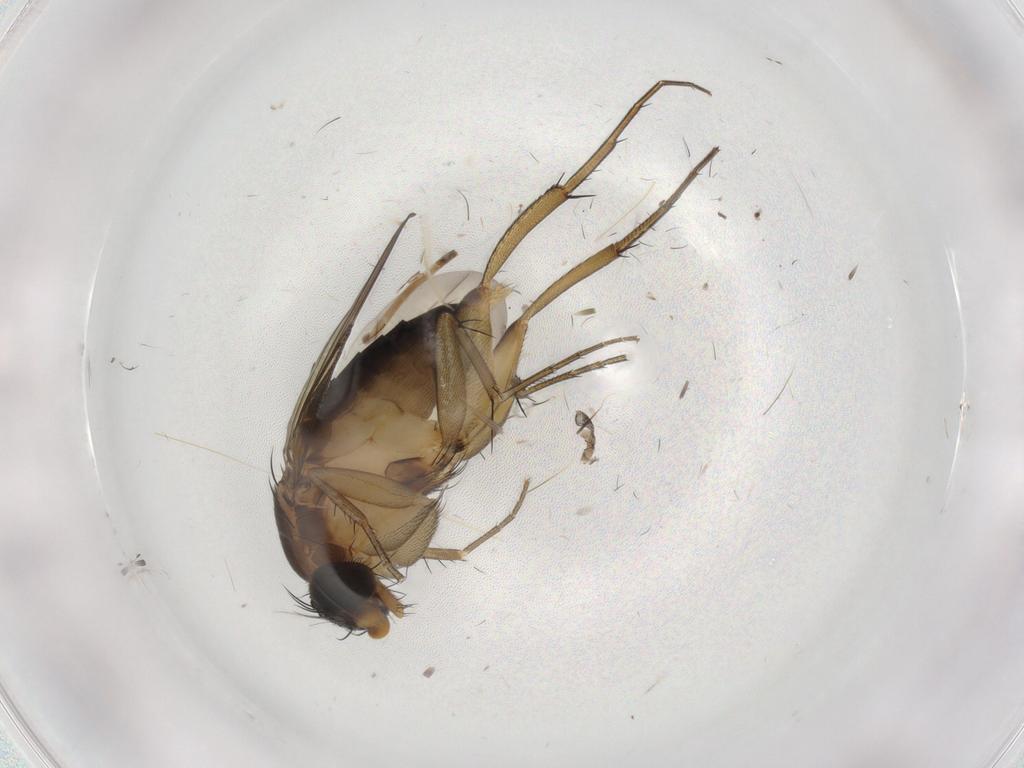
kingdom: Animalia
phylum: Arthropoda
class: Insecta
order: Diptera
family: Phoridae
